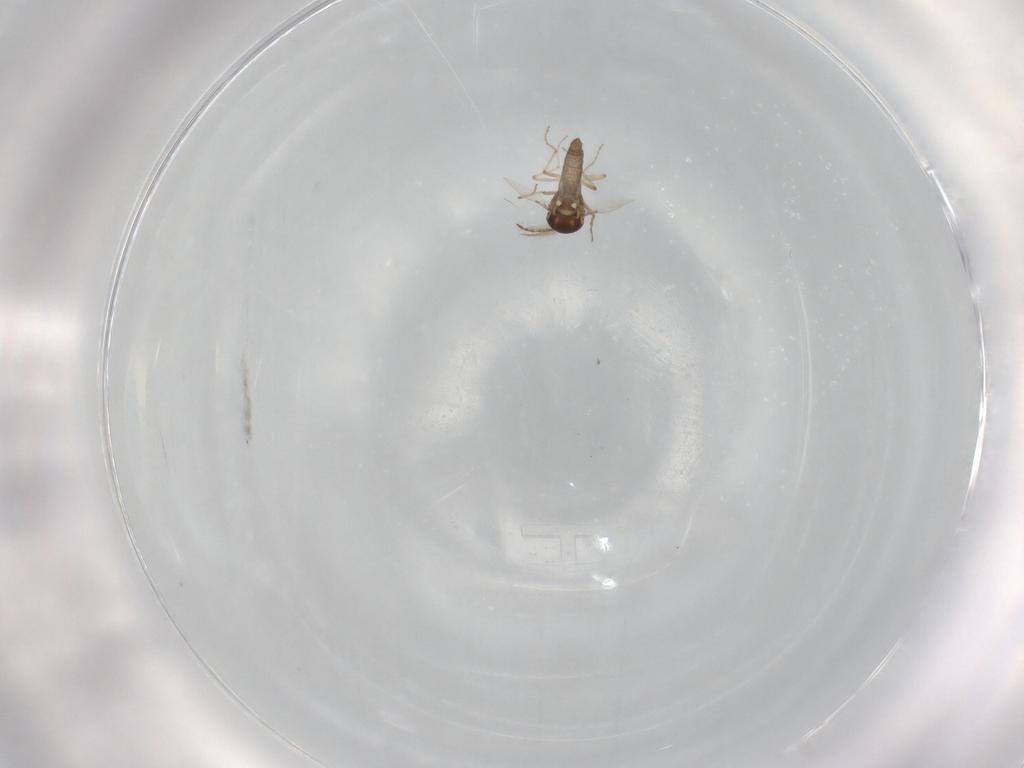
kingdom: Animalia
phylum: Arthropoda
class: Insecta
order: Diptera
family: Ceratopogonidae
